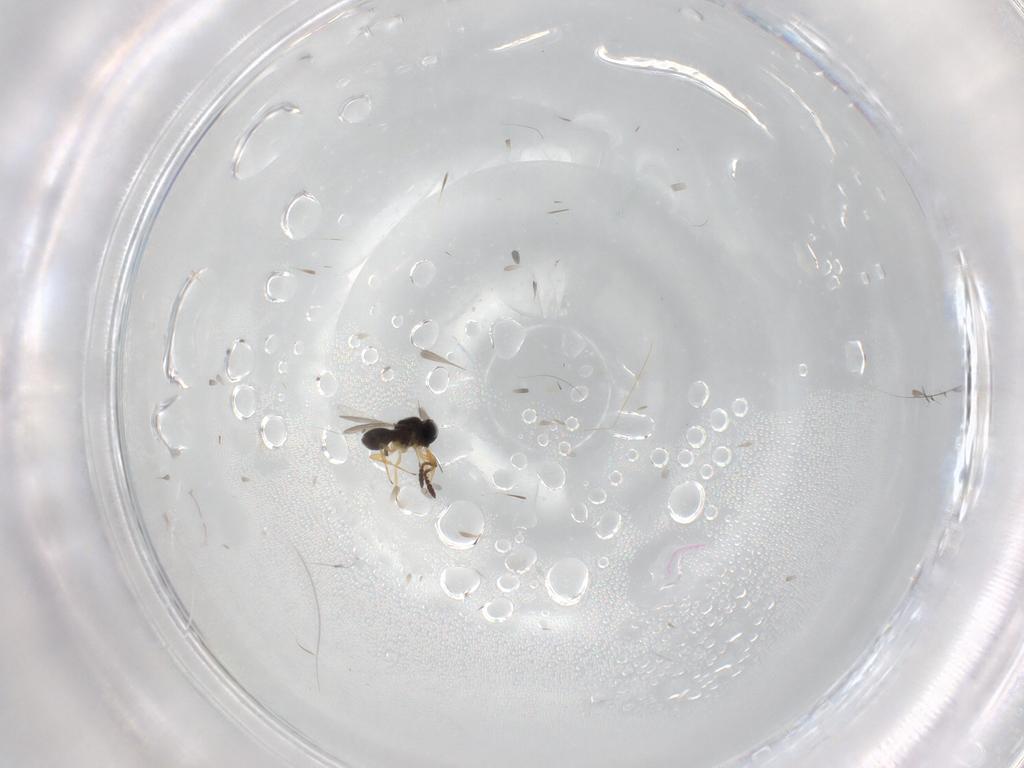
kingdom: Animalia
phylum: Arthropoda
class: Insecta
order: Hymenoptera
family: Scelionidae
